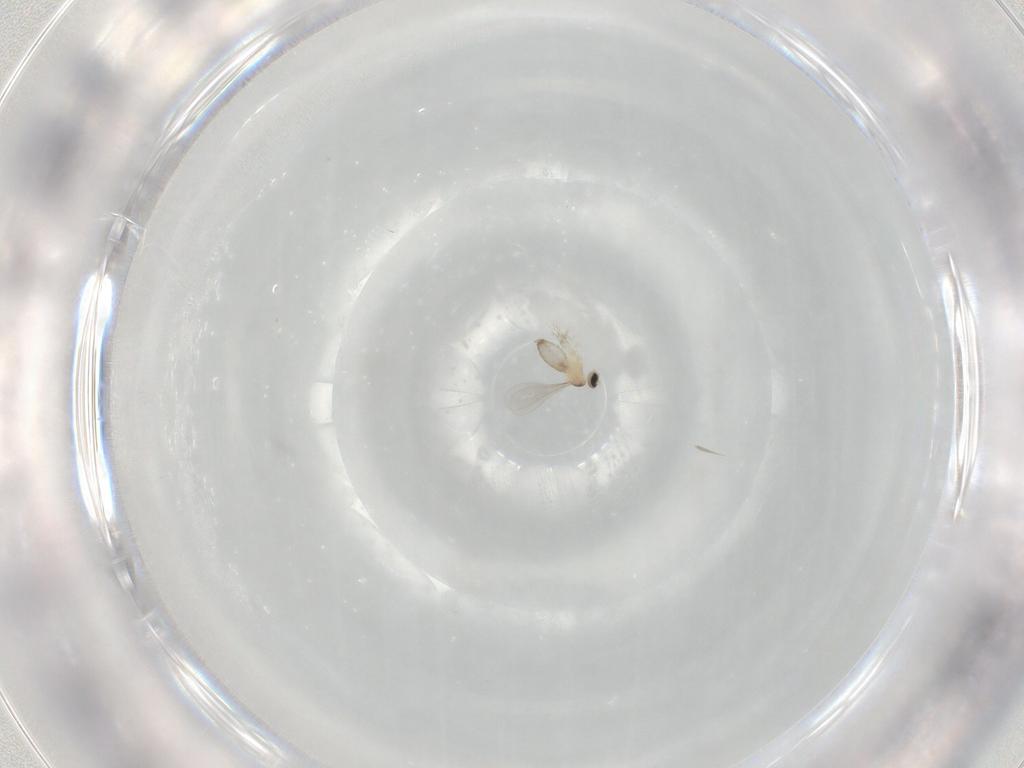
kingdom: Animalia
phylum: Arthropoda
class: Insecta
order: Diptera
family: Cecidomyiidae
